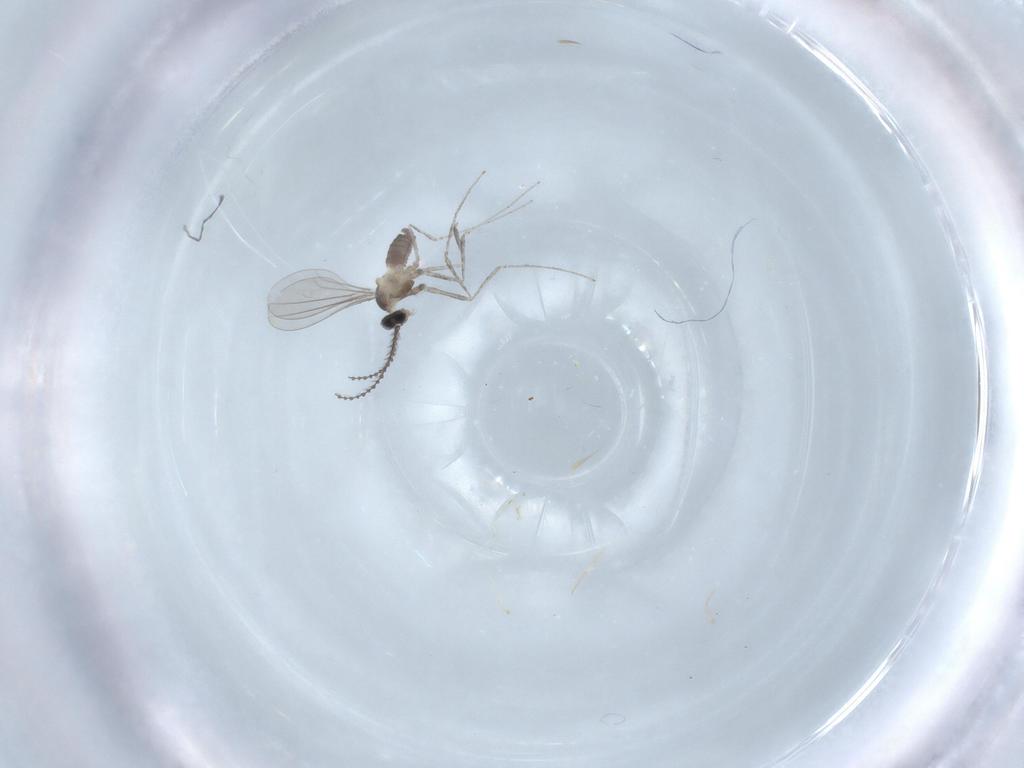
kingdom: Animalia
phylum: Arthropoda
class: Insecta
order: Diptera
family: Cecidomyiidae
